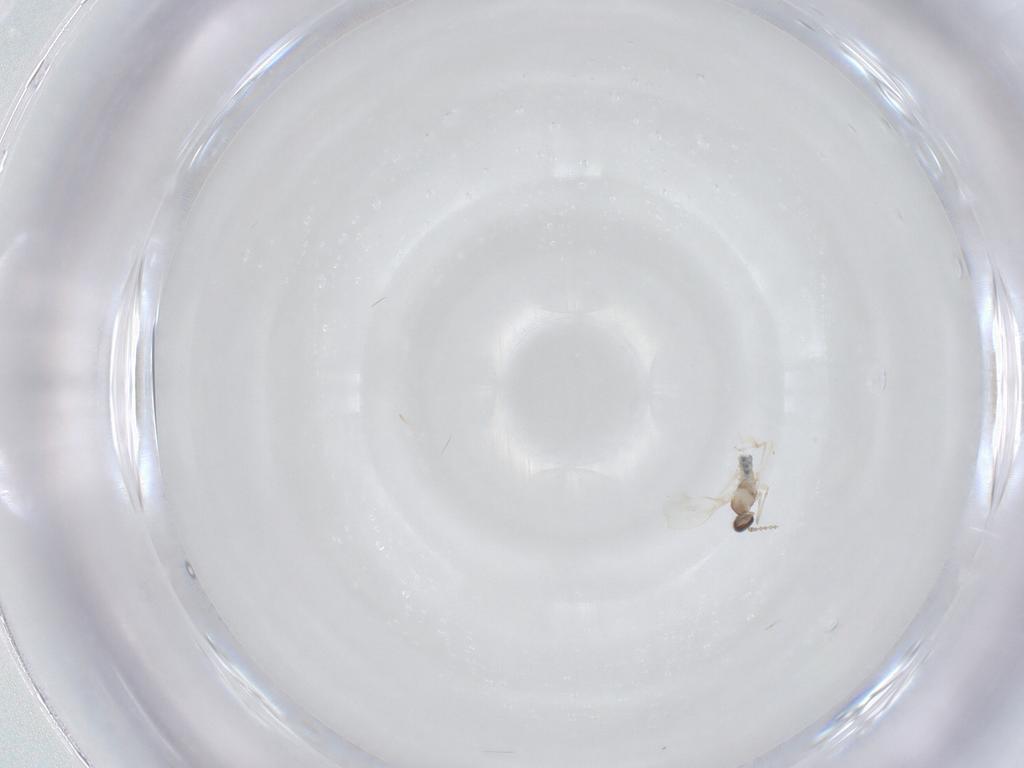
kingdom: Animalia
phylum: Arthropoda
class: Insecta
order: Diptera
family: Cecidomyiidae
